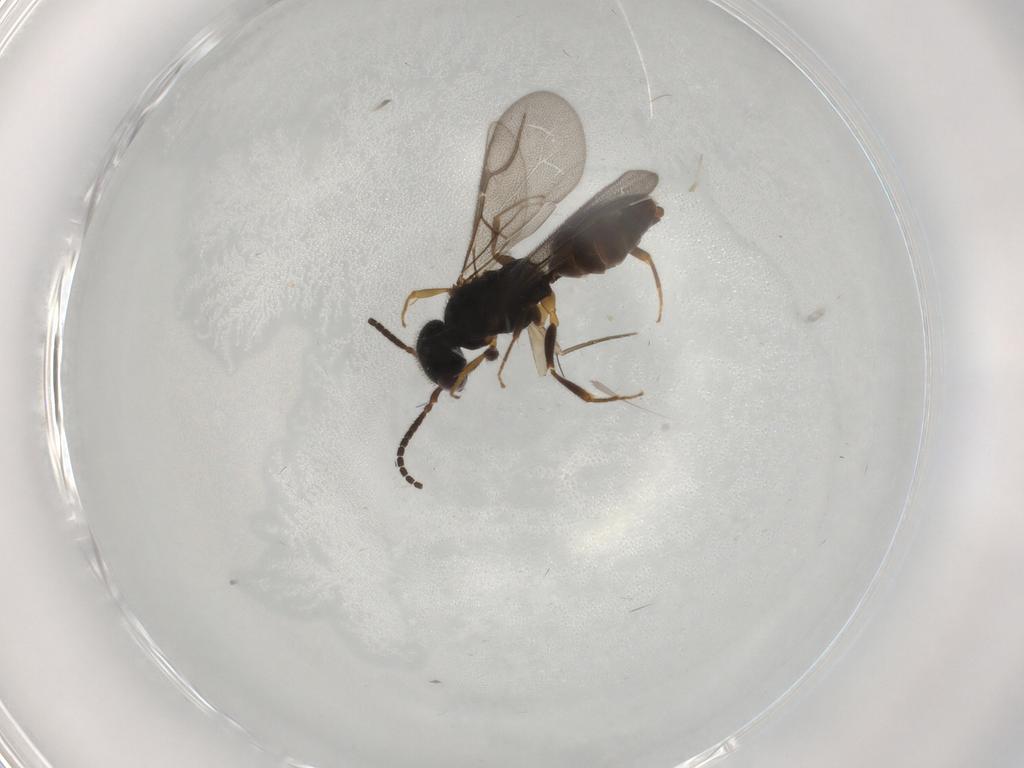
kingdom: Animalia
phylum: Arthropoda
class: Insecta
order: Hymenoptera
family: Bethylidae
